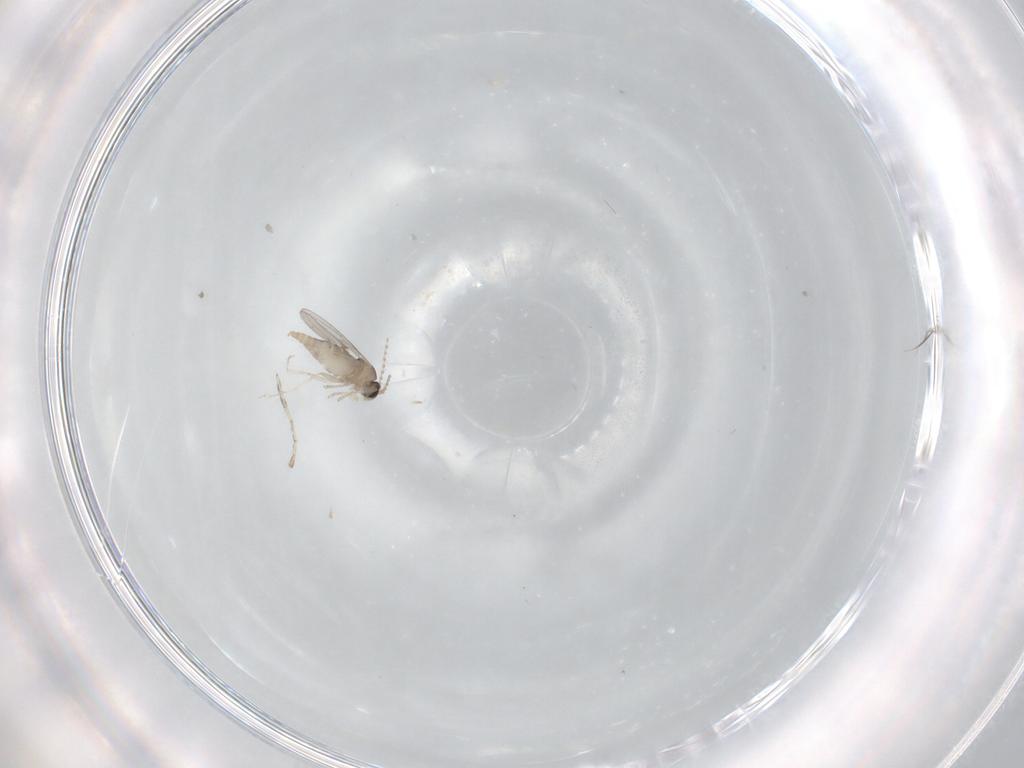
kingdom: Animalia
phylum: Arthropoda
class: Insecta
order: Diptera
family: Cecidomyiidae
